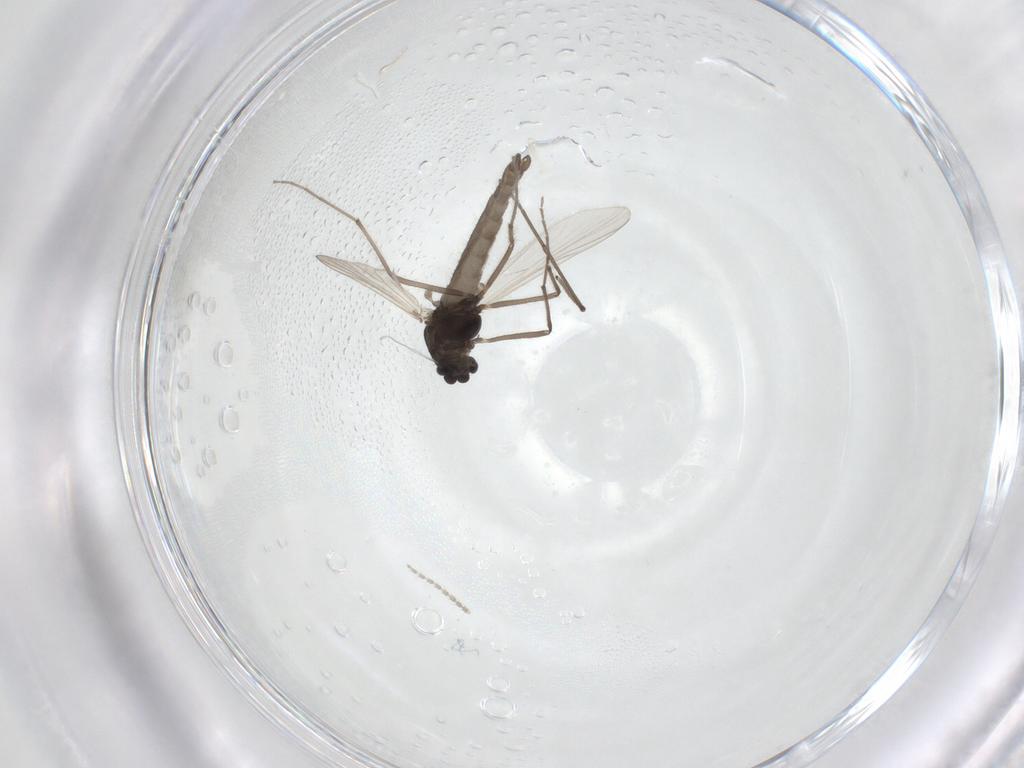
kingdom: Animalia
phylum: Arthropoda
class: Insecta
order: Diptera
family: Chironomidae
